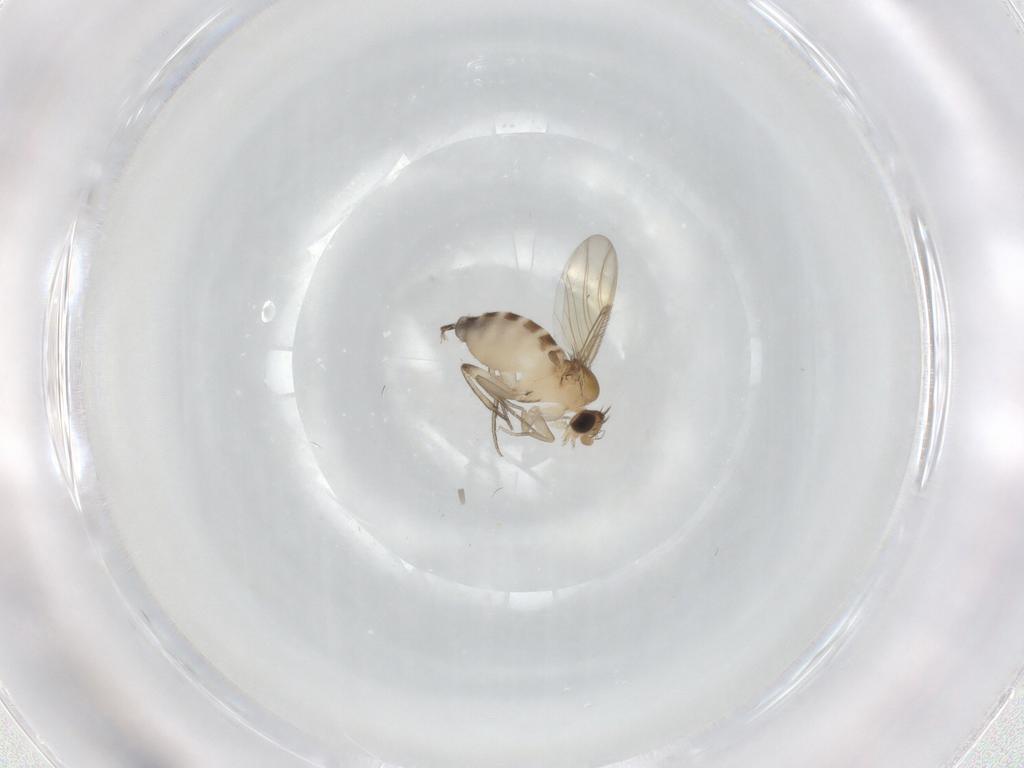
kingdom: Animalia
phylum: Arthropoda
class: Insecta
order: Diptera
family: Phoridae
